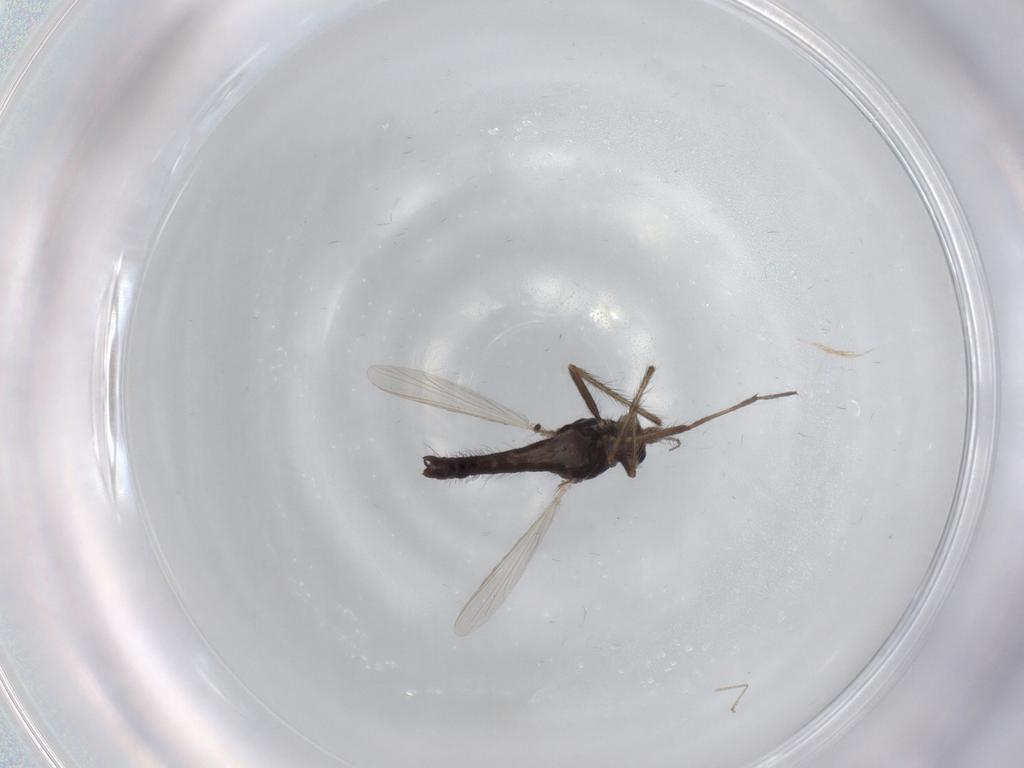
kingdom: Animalia
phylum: Arthropoda
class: Insecta
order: Diptera
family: Chironomidae
